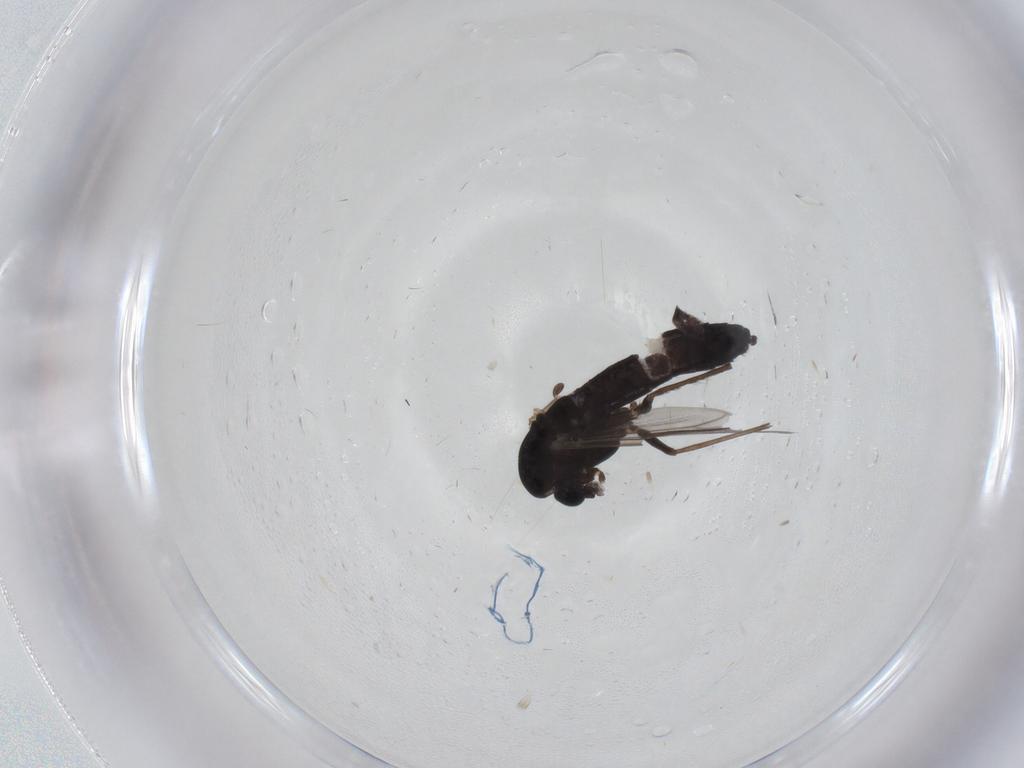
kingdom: Animalia
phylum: Arthropoda
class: Insecta
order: Diptera
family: Chironomidae
